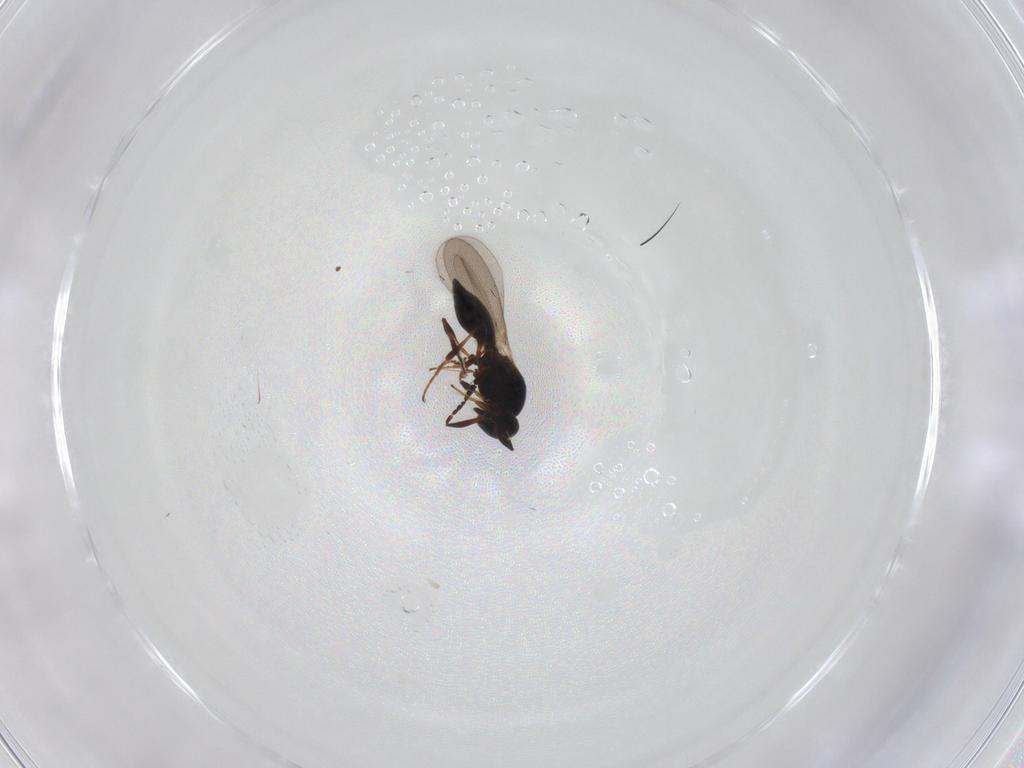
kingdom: Animalia
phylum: Arthropoda
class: Insecta
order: Hymenoptera
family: Platygastridae
